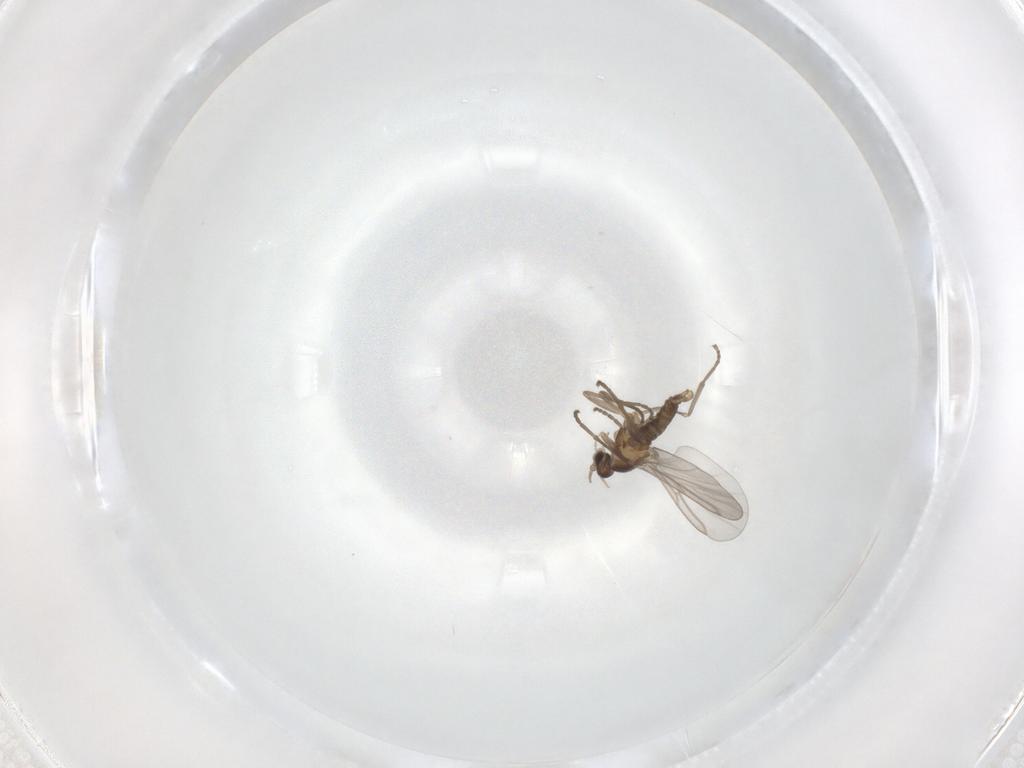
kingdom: Animalia
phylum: Arthropoda
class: Insecta
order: Diptera
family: Cecidomyiidae
